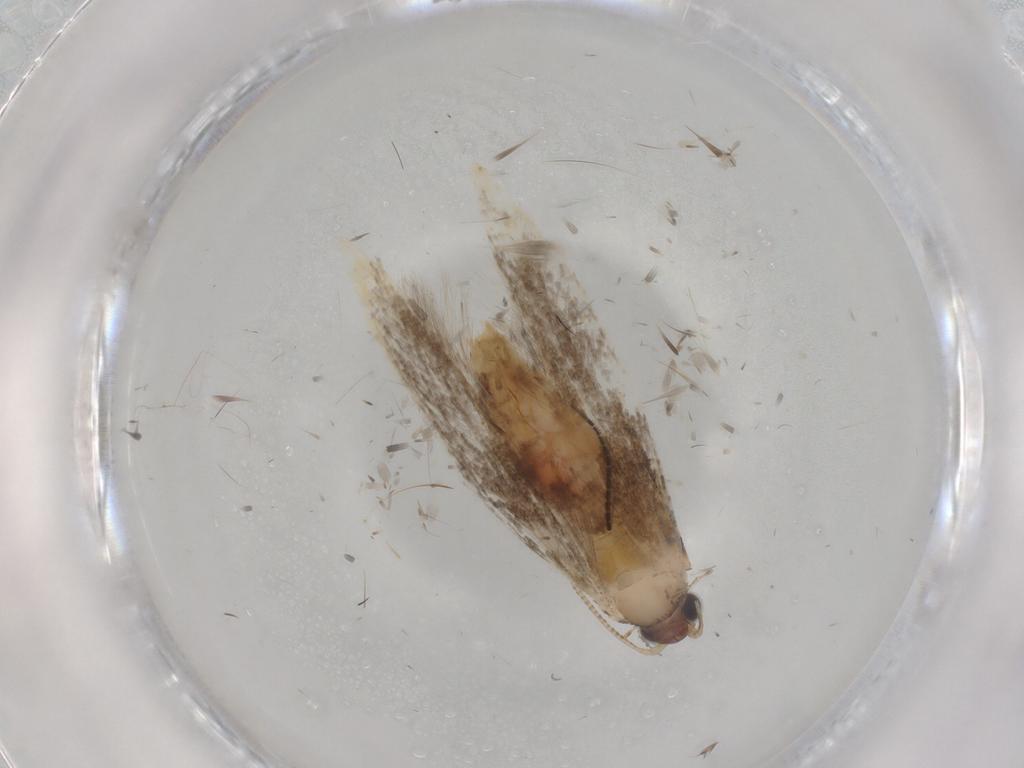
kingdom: Animalia
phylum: Arthropoda
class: Insecta
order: Lepidoptera
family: Tineidae
